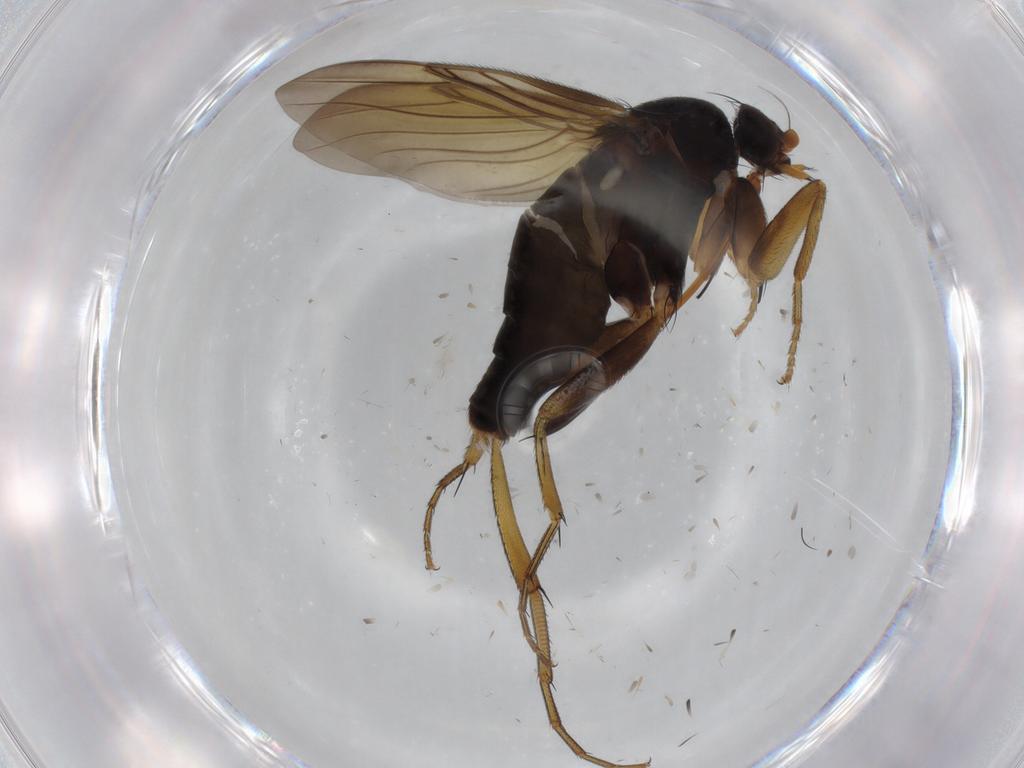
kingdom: Animalia
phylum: Arthropoda
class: Insecta
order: Diptera
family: Phoridae
